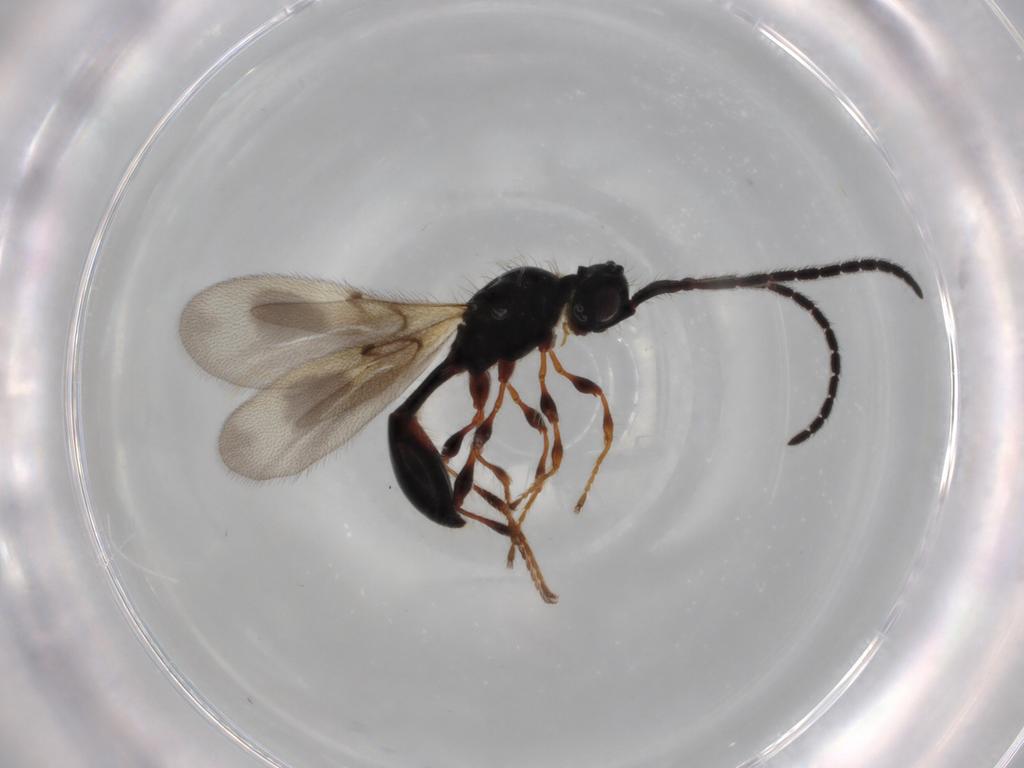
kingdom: Animalia
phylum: Arthropoda
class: Insecta
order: Hymenoptera
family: Diapriidae
